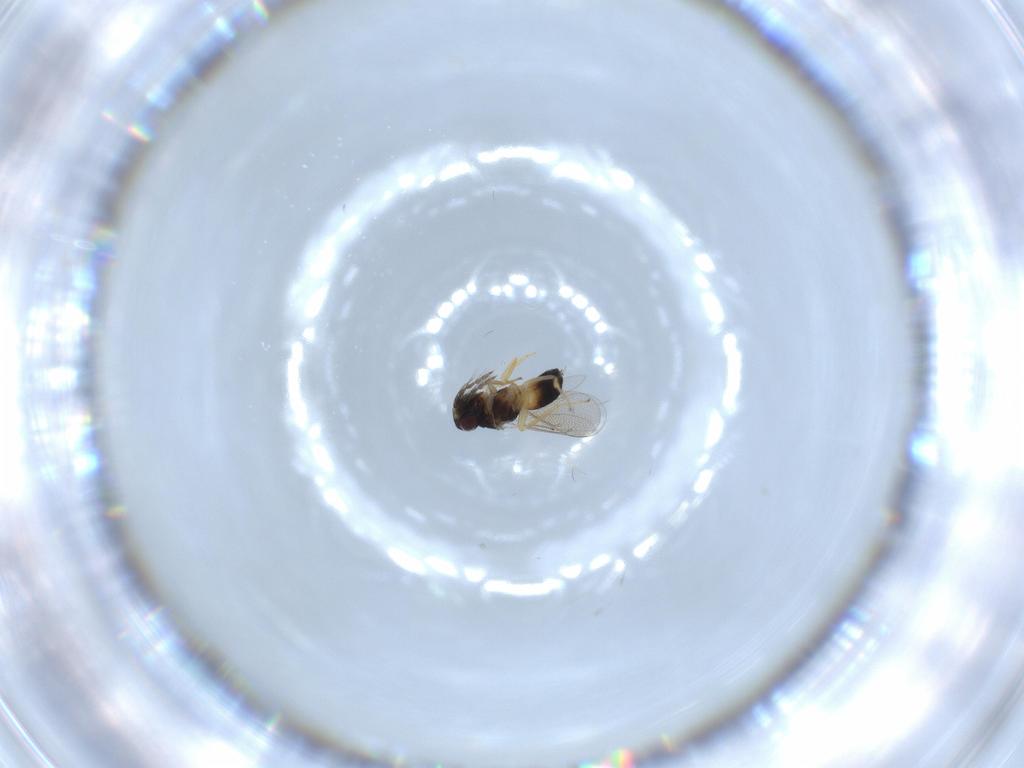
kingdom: Animalia
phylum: Arthropoda
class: Insecta
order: Hymenoptera
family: Eulophidae
